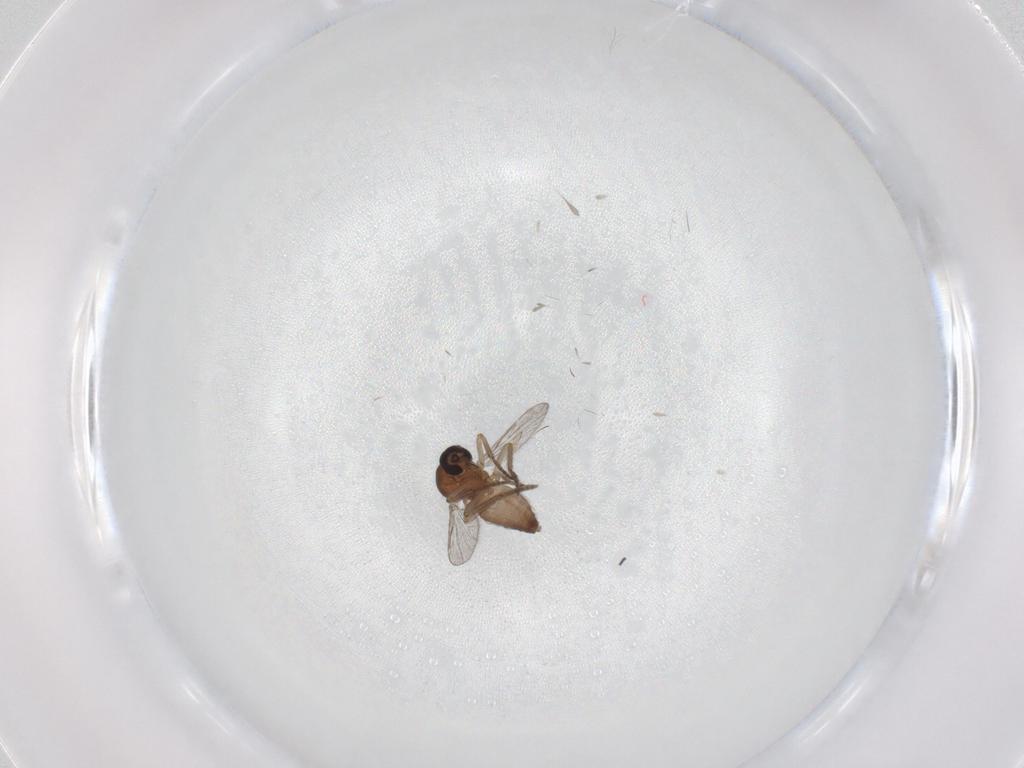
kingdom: Animalia
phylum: Arthropoda
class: Insecta
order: Diptera
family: Ceratopogonidae
